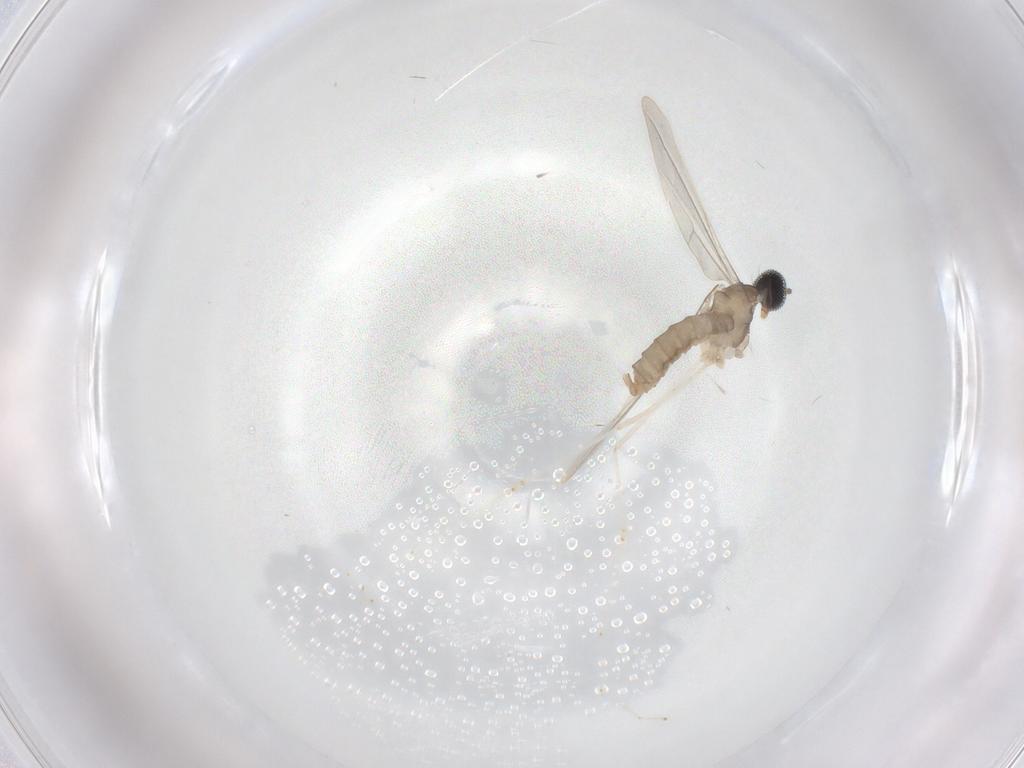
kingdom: Animalia
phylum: Arthropoda
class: Insecta
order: Diptera
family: Cecidomyiidae
